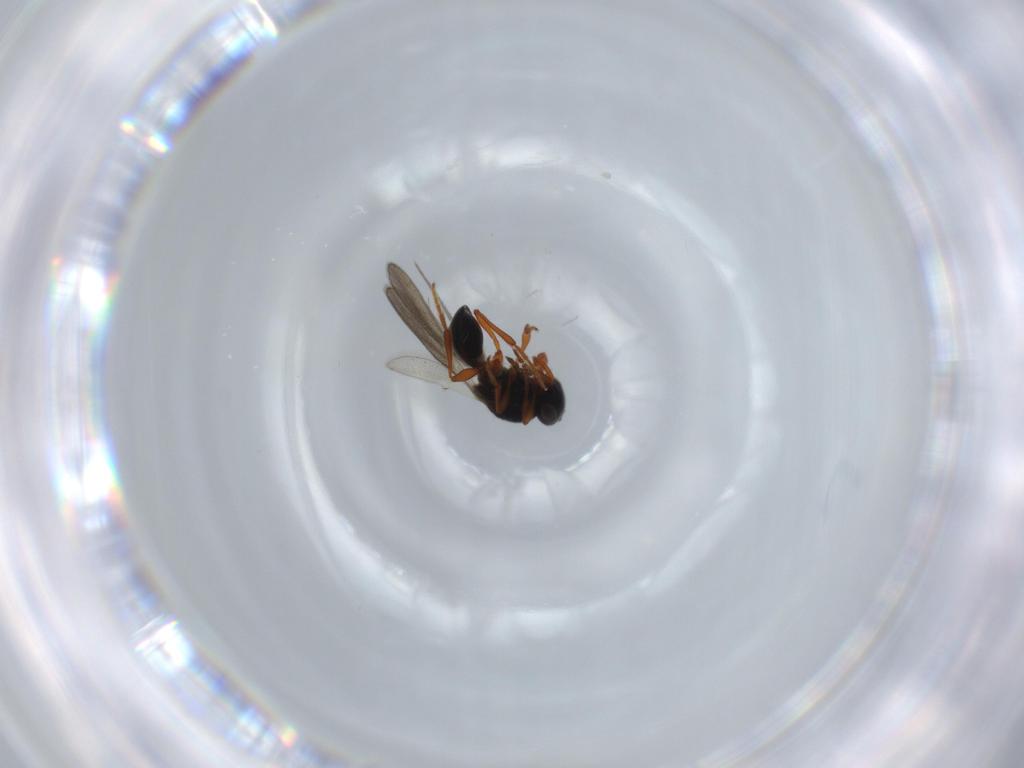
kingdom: Animalia
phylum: Arthropoda
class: Insecta
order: Hymenoptera
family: Platygastridae
